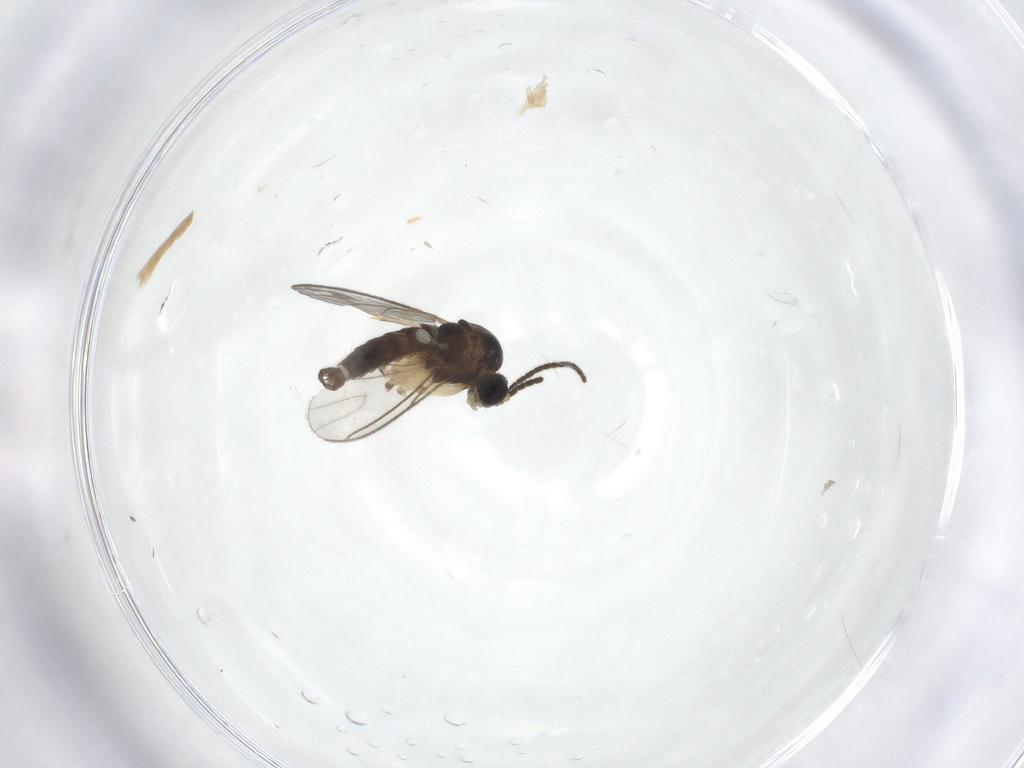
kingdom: Animalia
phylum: Arthropoda
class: Insecta
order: Diptera
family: Sciaridae
